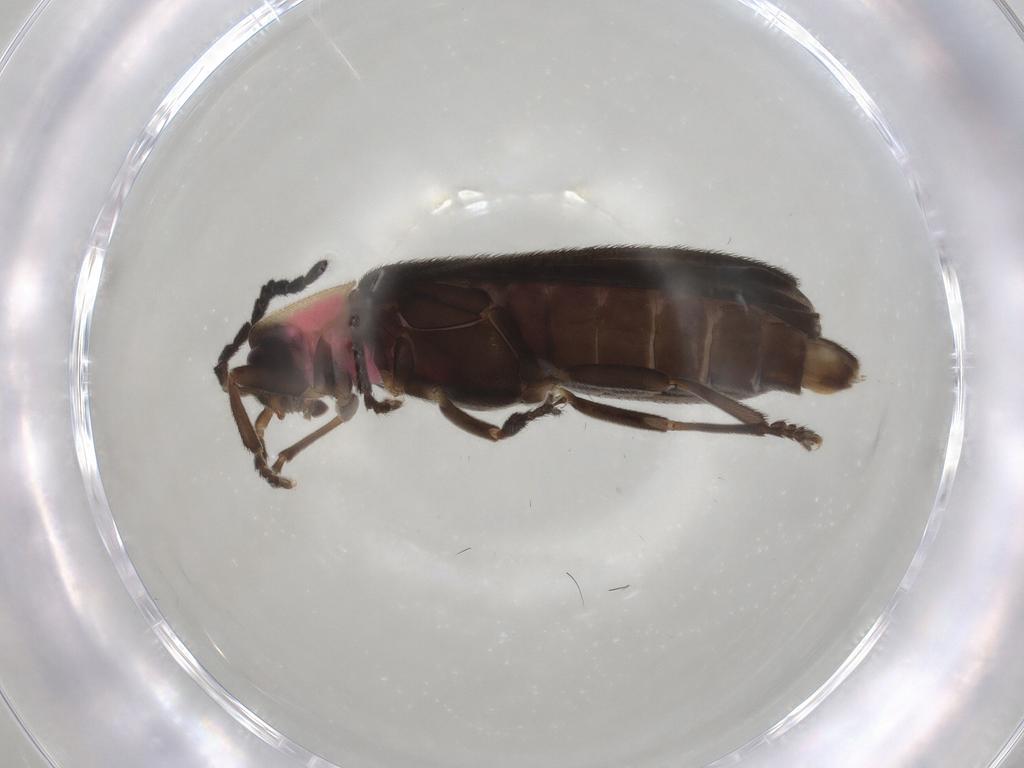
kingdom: Animalia
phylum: Arthropoda
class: Insecta
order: Coleoptera
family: Lampyridae
